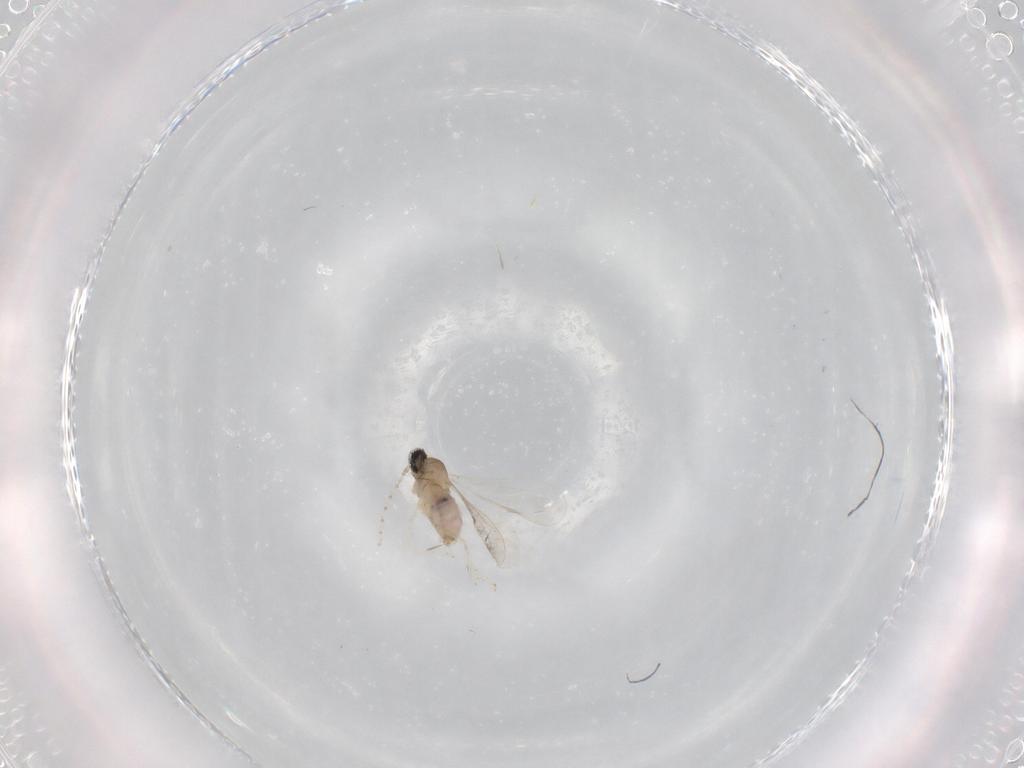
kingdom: Animalia
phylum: Arthropoda
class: Insecta
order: Diptera
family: Cecidomyiidae
